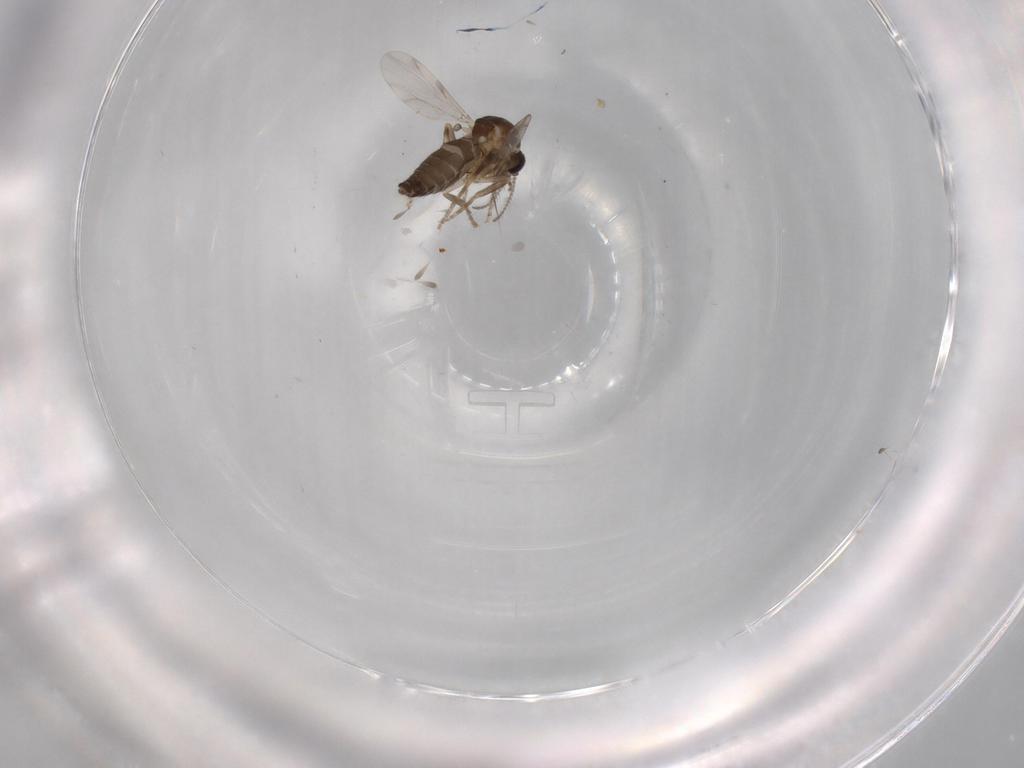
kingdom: Animalia
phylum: Arthropoda
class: Insecta
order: Diptera
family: Ceratopogonidae
